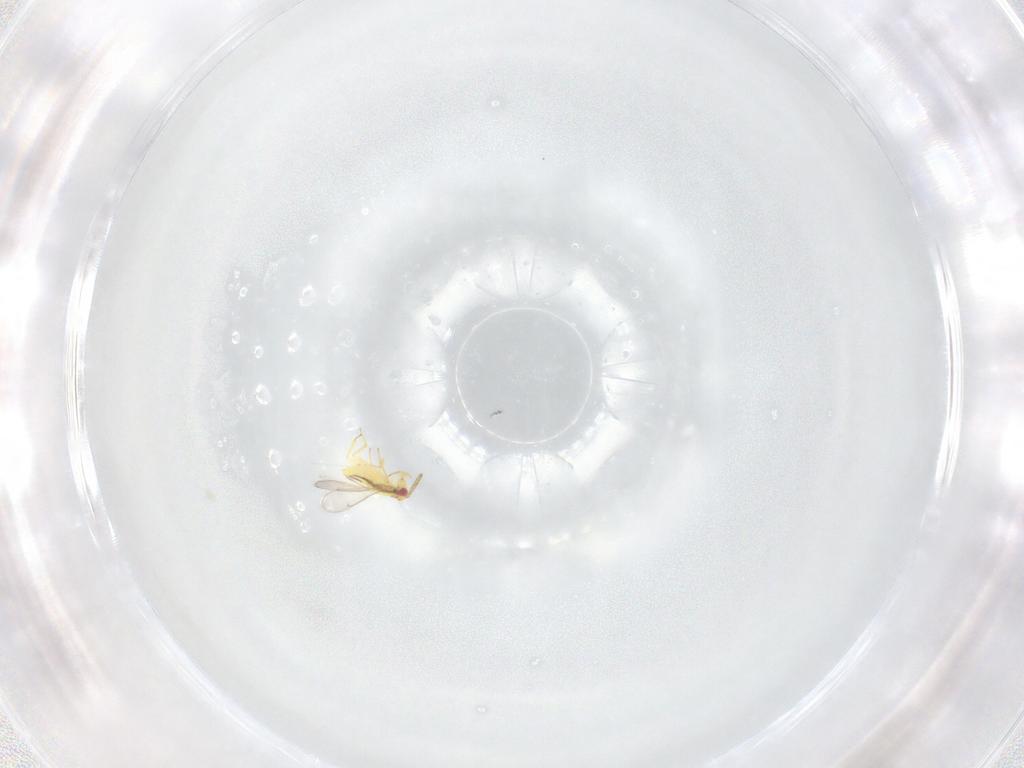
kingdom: Animalia
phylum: Arthropoda
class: Insecta
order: Hymenoptera
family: Aphelinidae
